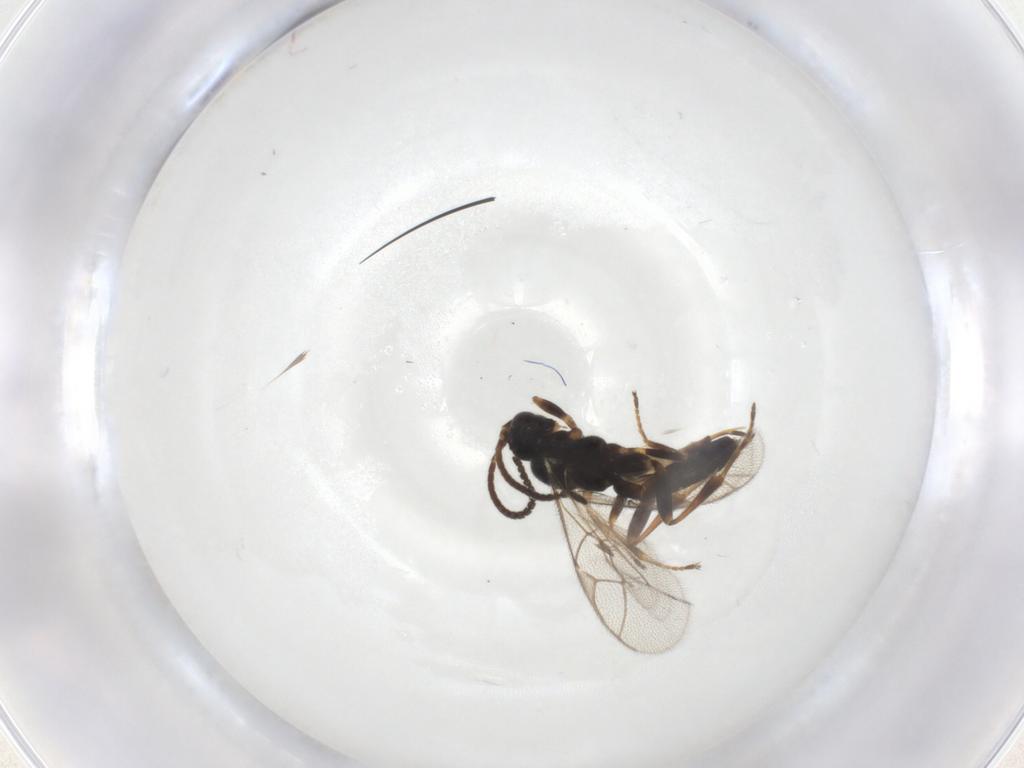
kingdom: Animalia
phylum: Arthropoda
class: Insecta
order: Hymenoptera
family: Ichneumonidae
